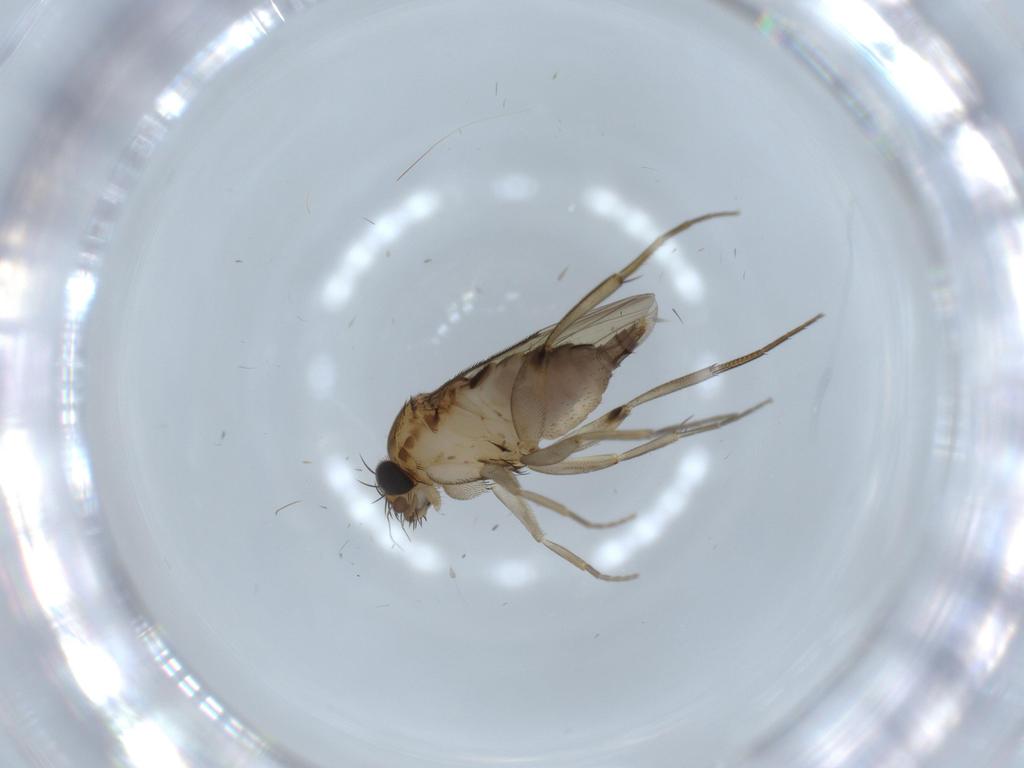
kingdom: Animalia
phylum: Arthropoda
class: Insecta
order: Diptera
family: Phoridae
